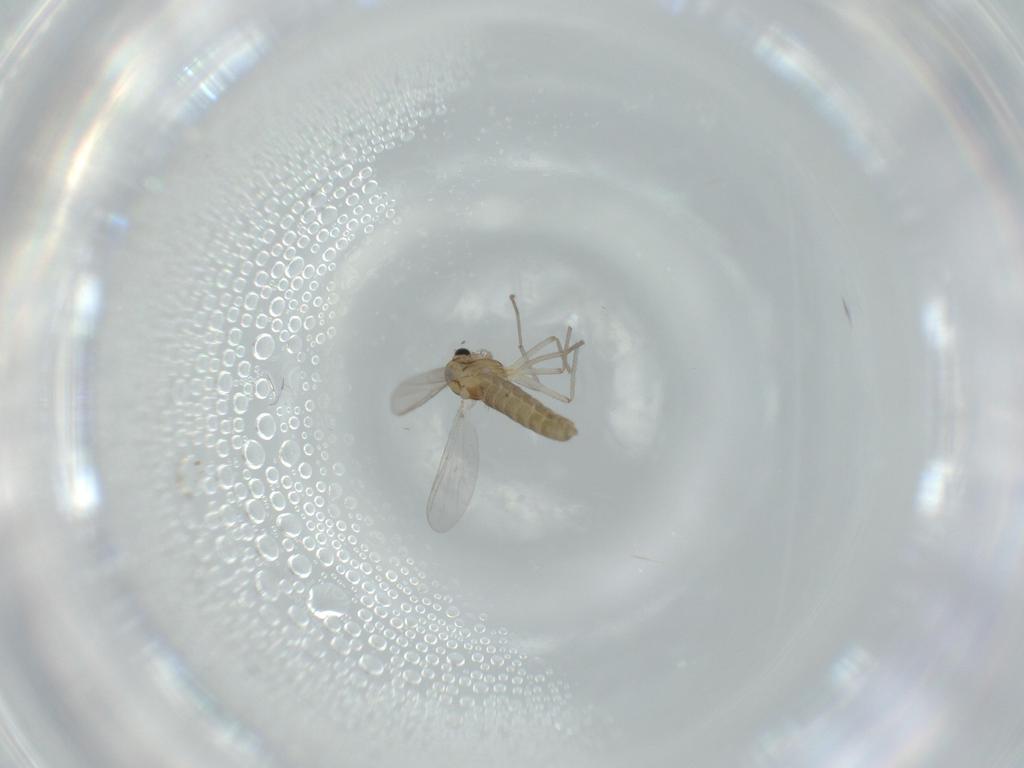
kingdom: Animalia
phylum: Arthropoda
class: Insecta
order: Diptera
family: Chironomidae
